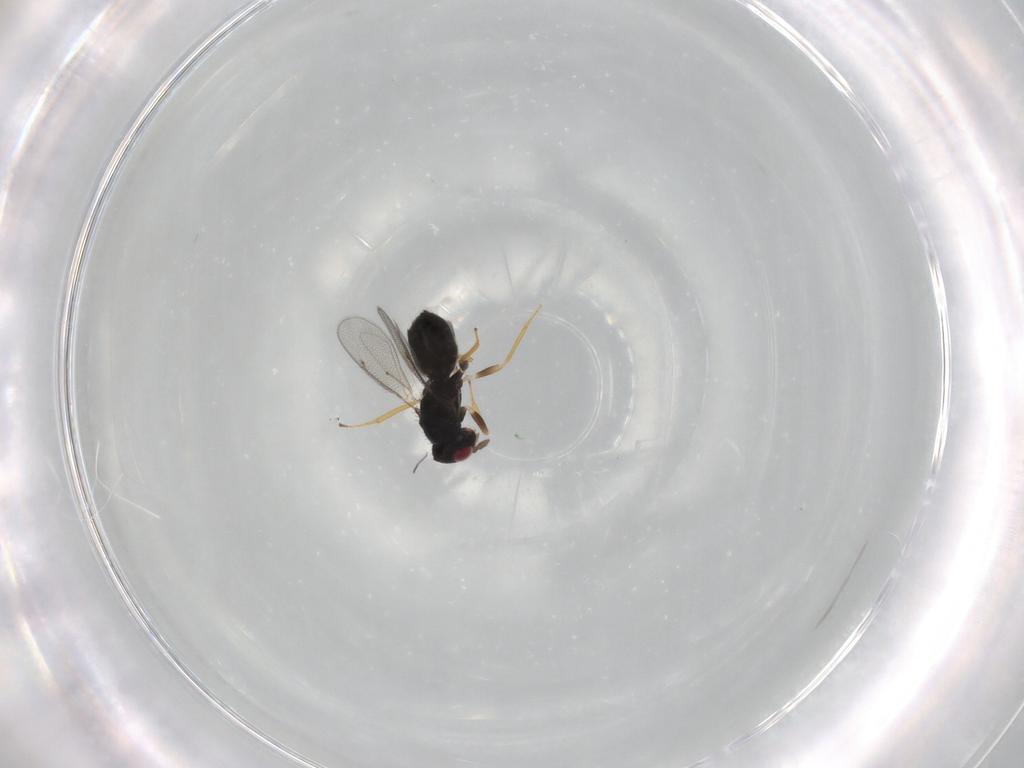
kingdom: Animalia
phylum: Arthropoda
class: Insecta
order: Hymenoptera
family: Eulophidae
